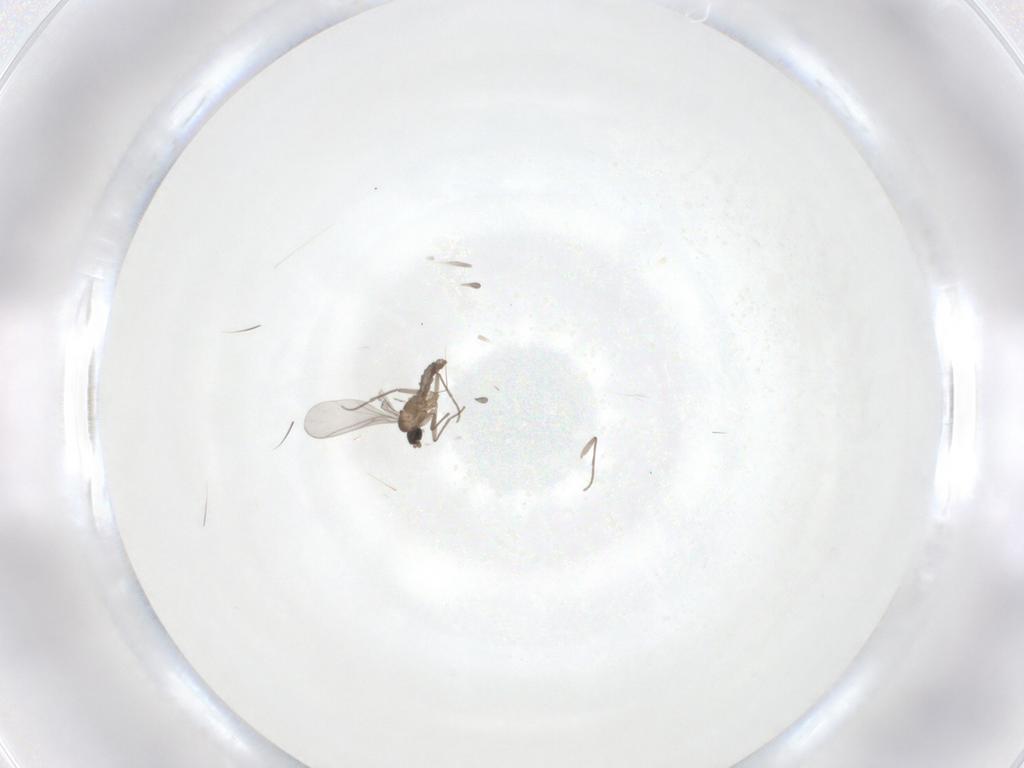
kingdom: Animalia
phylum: Arthropoda
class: Insecta
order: Diptera
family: Sciaridae
